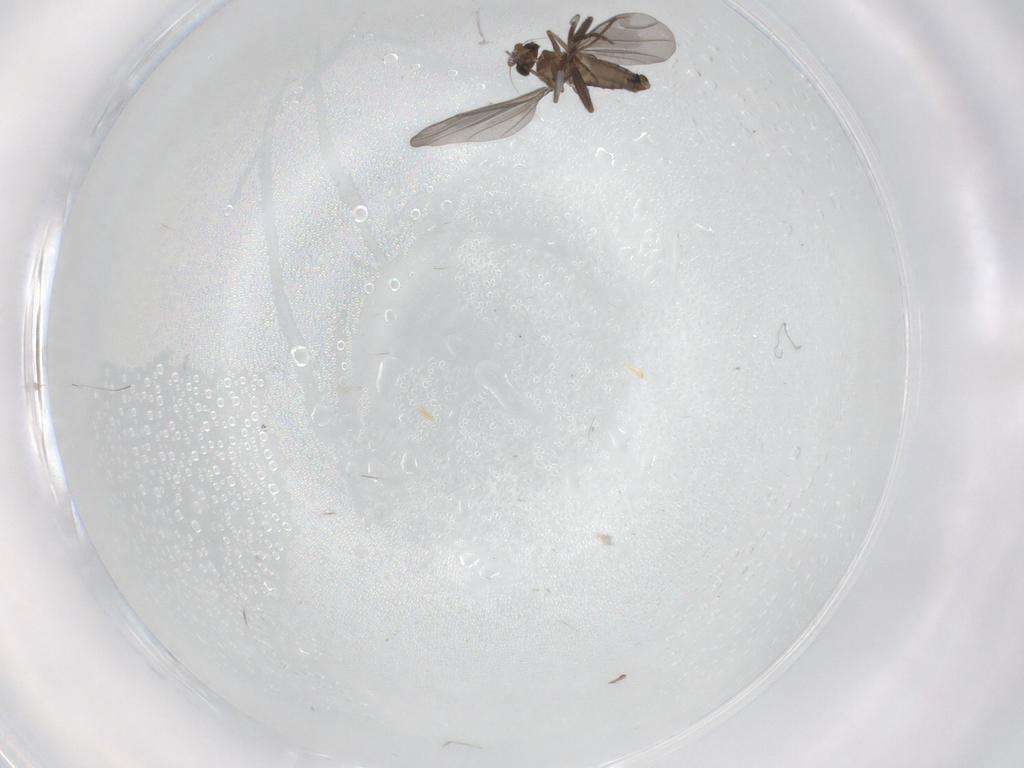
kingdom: Animalia
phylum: Arthropoda
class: Insecta
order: Diptera
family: Phoridae
